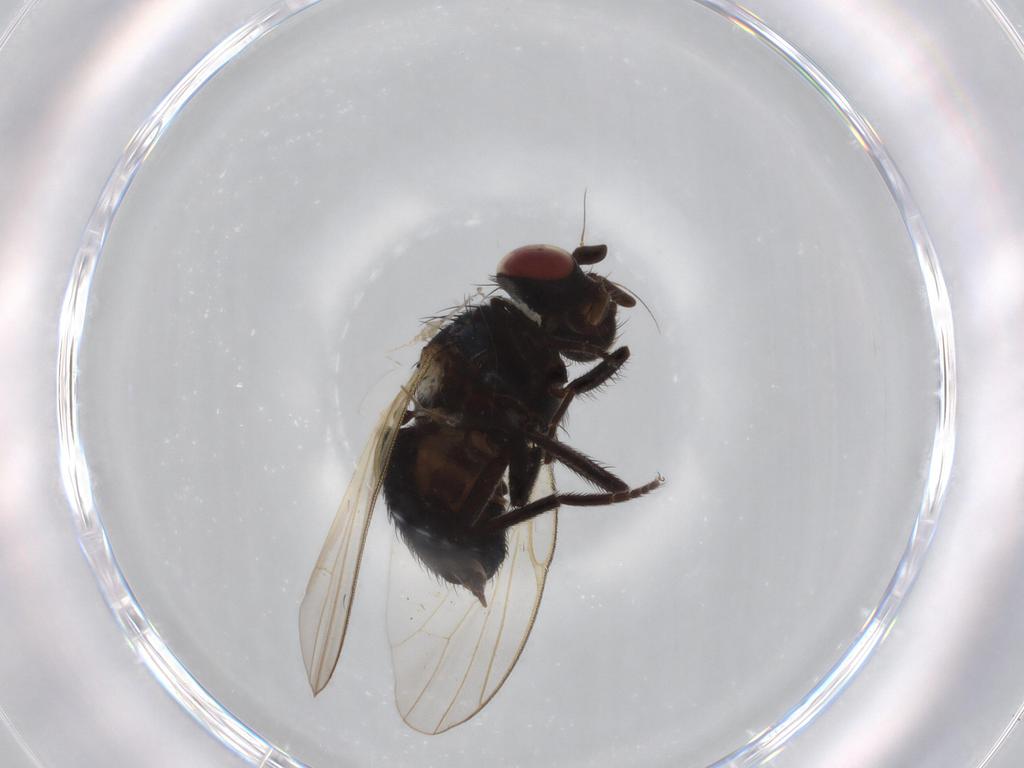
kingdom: Animalia
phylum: Arthropoda
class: Insecta
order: Diptera
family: Lonchaeidae
